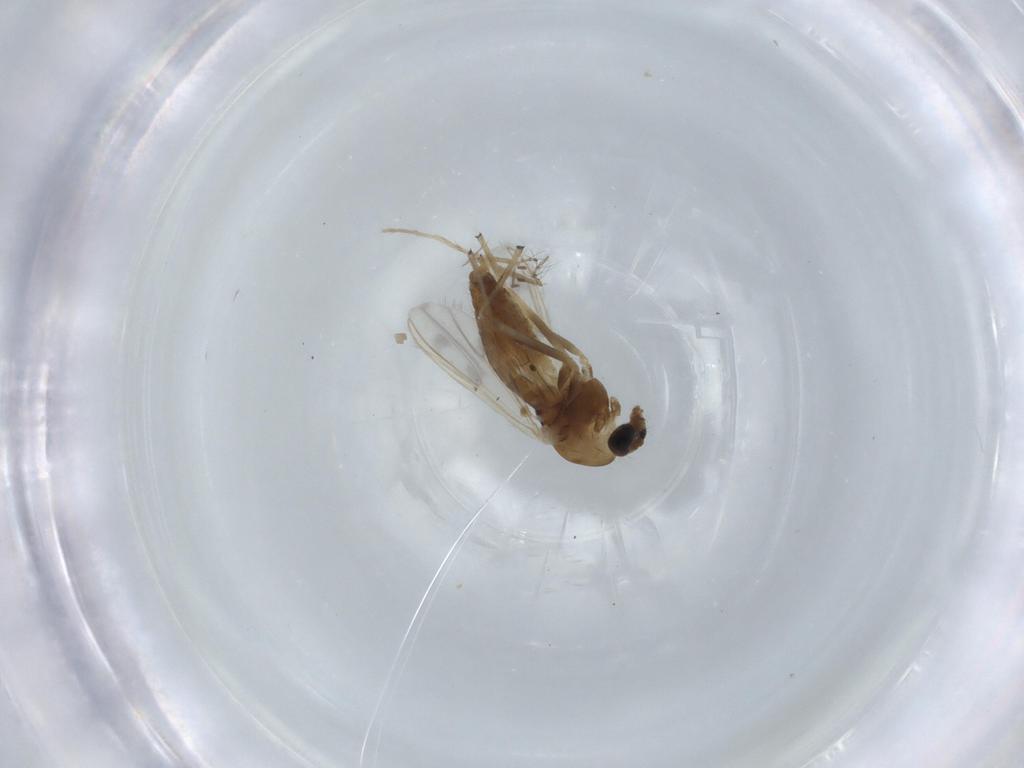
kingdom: Animalia
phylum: Arthropoda
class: Insecta
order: Diptera
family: Chironomidae
